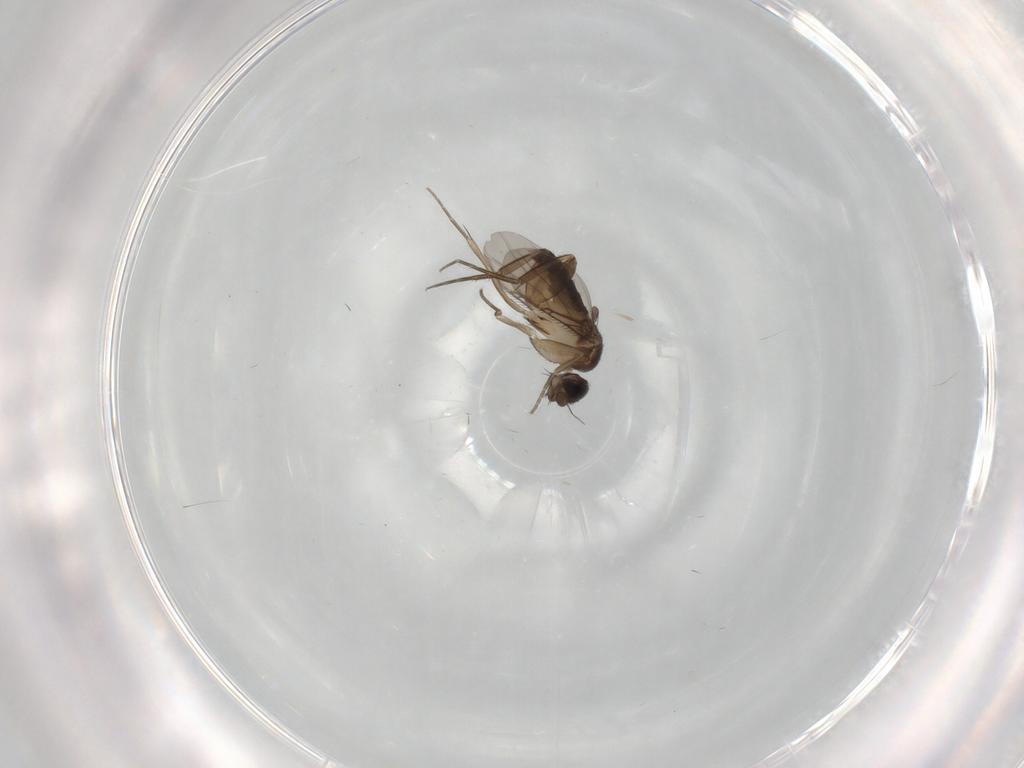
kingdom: Animalia
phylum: Arthropoda
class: Insecta
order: Diptera
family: Phoridae
